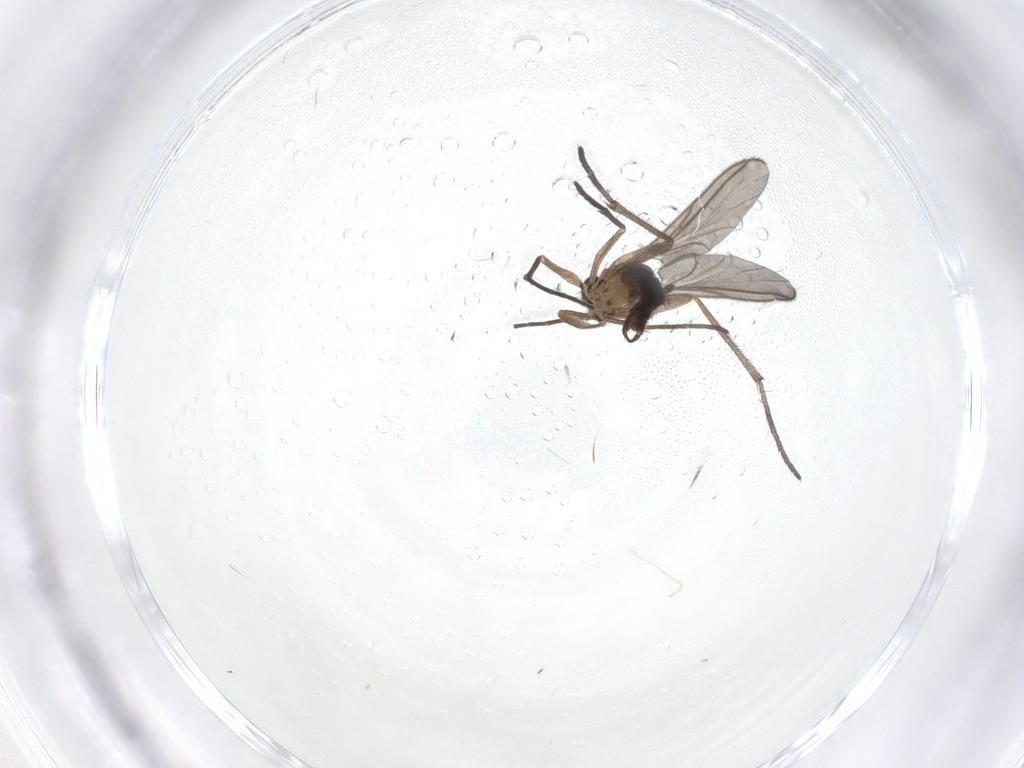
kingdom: Animalia
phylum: Arthropoda
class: Insecta
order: Diptera
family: Sciaridae
